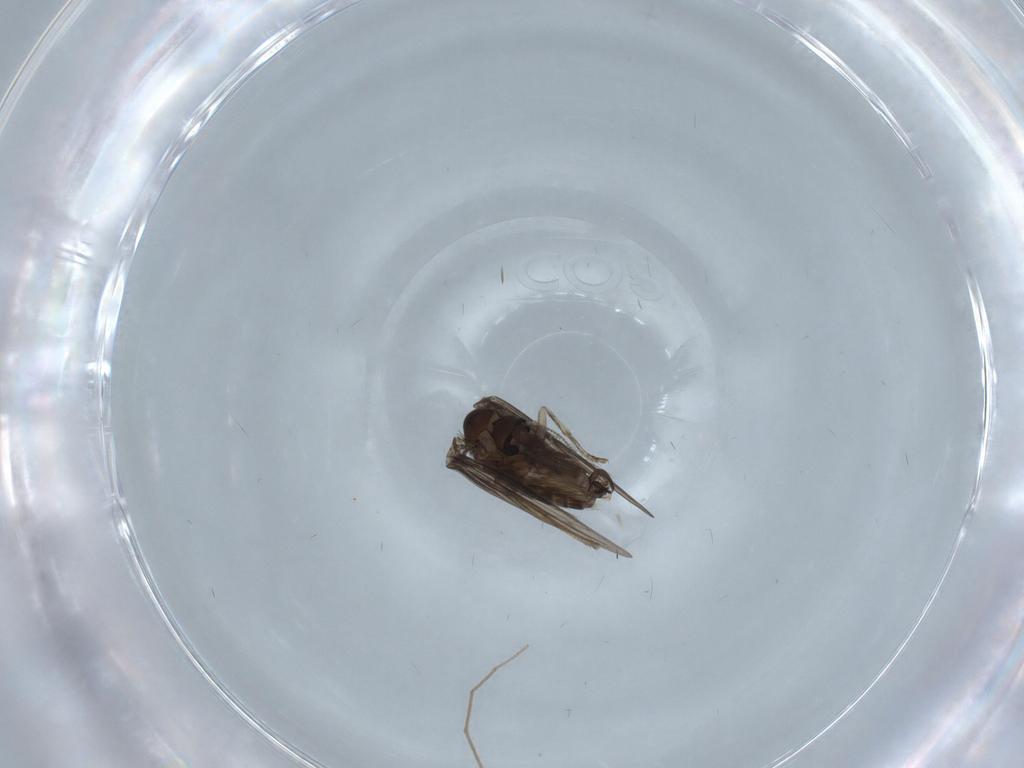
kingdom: Animalia
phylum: Arthropoda
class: Insecta
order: Diptera
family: Psychodidae
